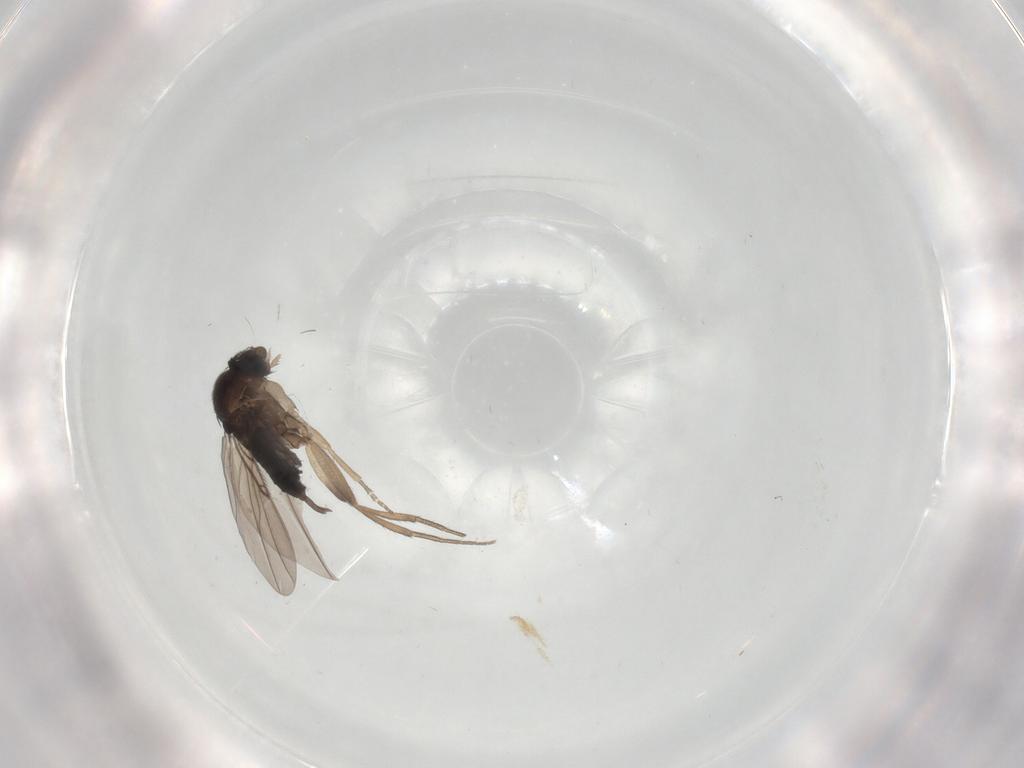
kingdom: Animalia
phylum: Arthropoda
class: Insecta
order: Diptera
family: Phoridae
